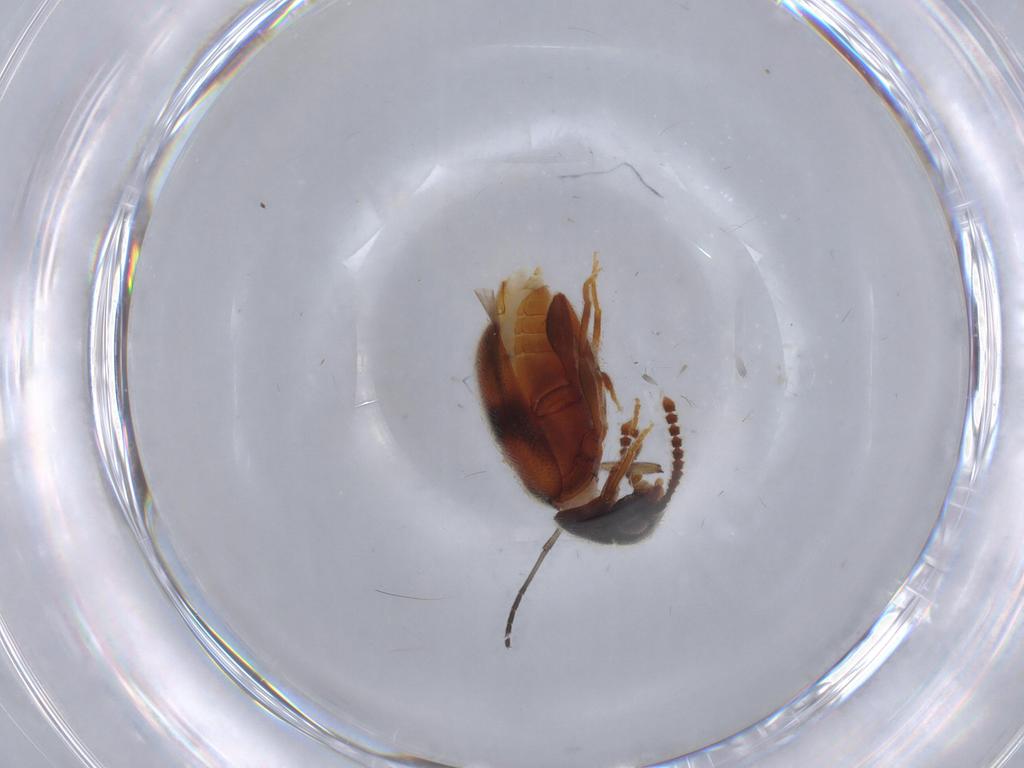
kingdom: Animalia
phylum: Arthropoda
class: Insecta
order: Coleoptera
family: Aderidae
